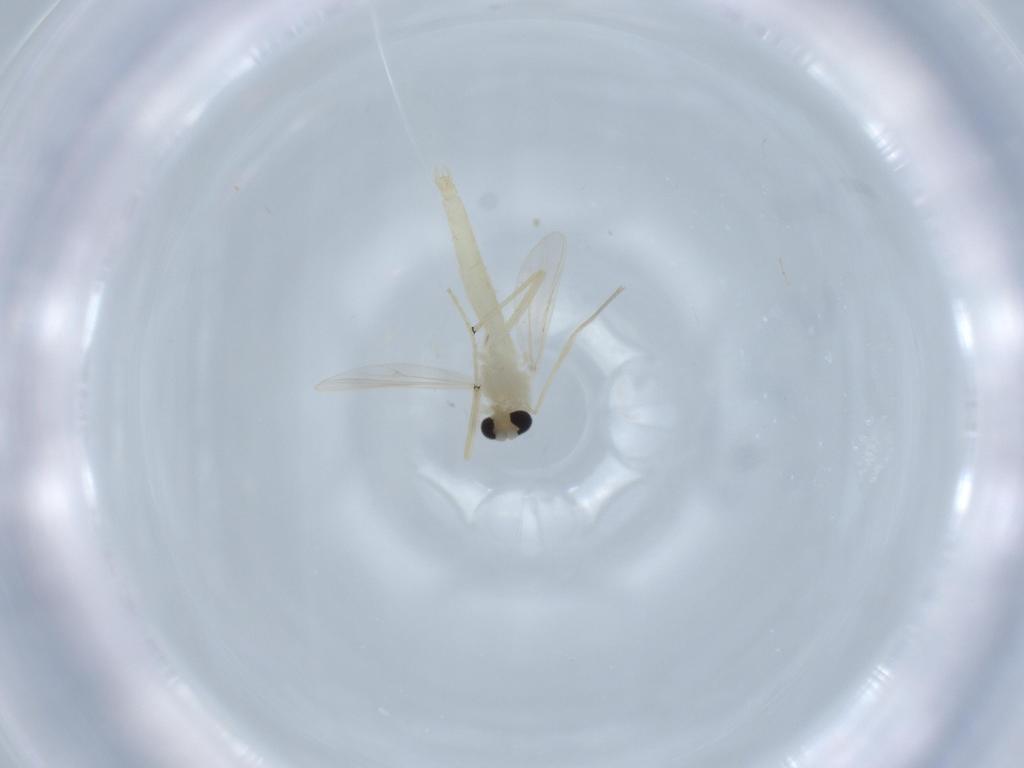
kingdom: Animalia
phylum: Arthropoda
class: Insecta
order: Diptera
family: Chironomidae
